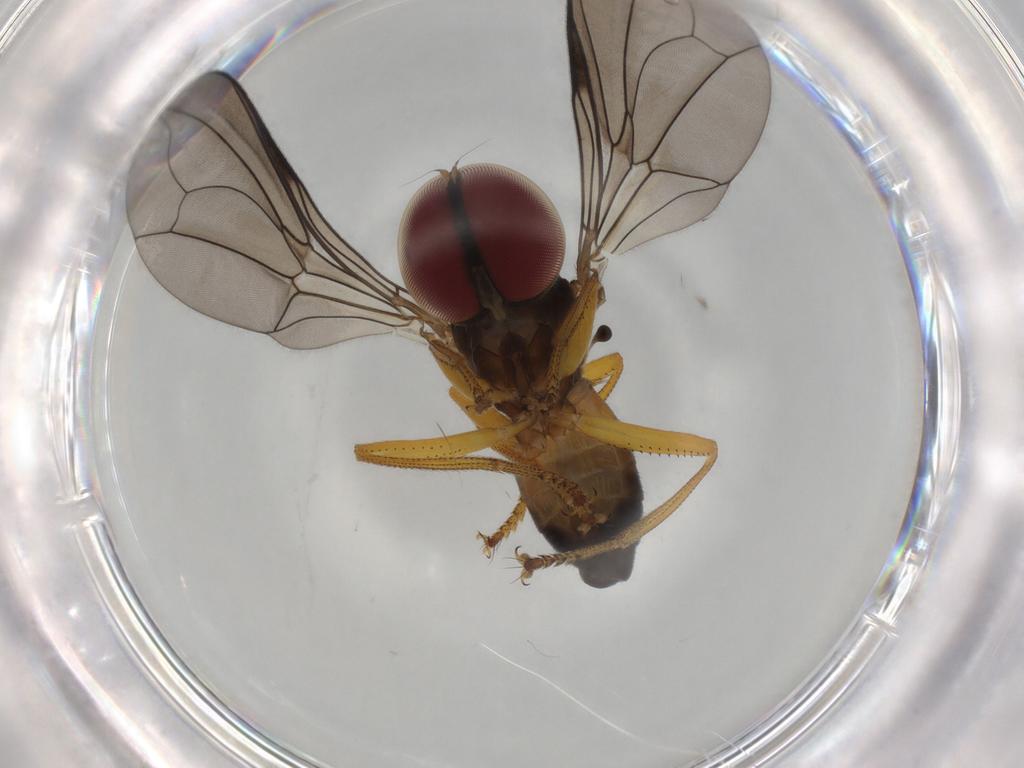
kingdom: Animalia
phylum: Arthropoda
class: Insecta
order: Diptera
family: Pipunculidae
